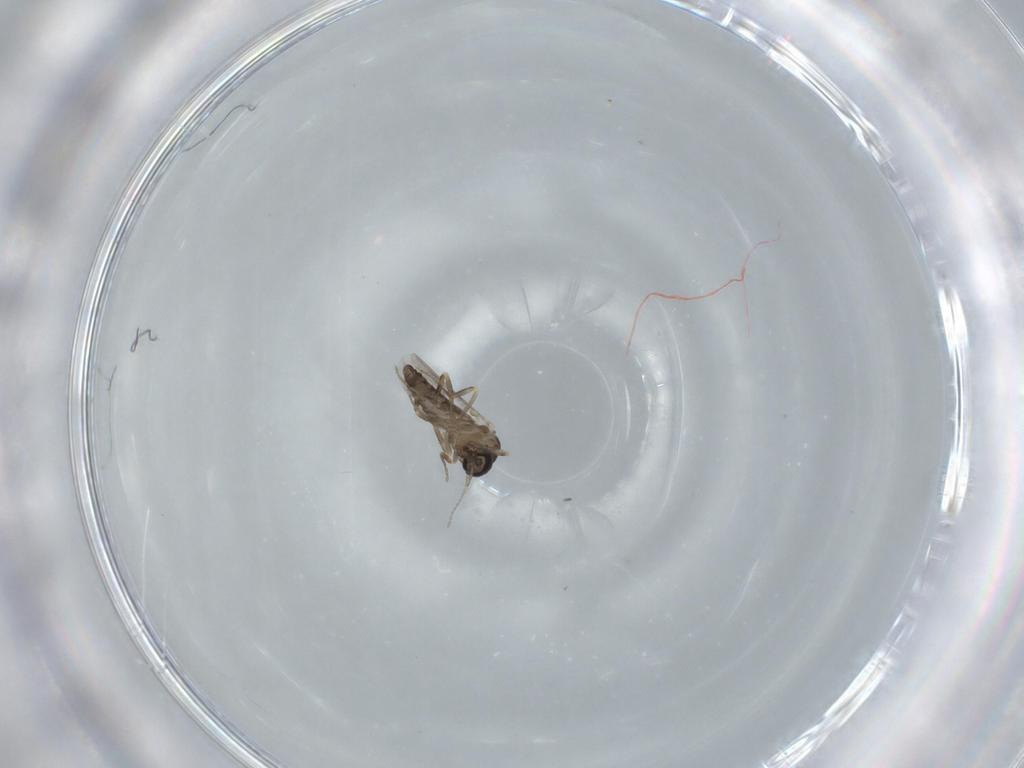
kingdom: Animalia
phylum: Arthropoda
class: Insecta
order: Diptera
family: Ceratopogonidae
